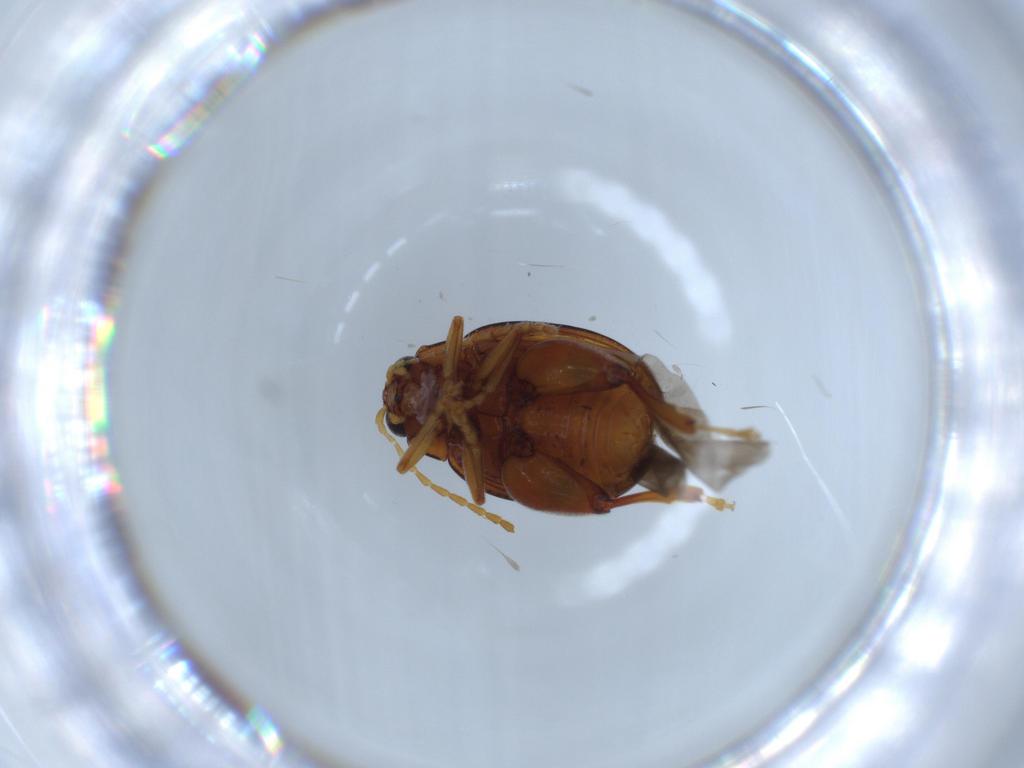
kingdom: Animalia
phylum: Arthropoda
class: Insecta
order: Coleoptera
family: Chrysomelidae
